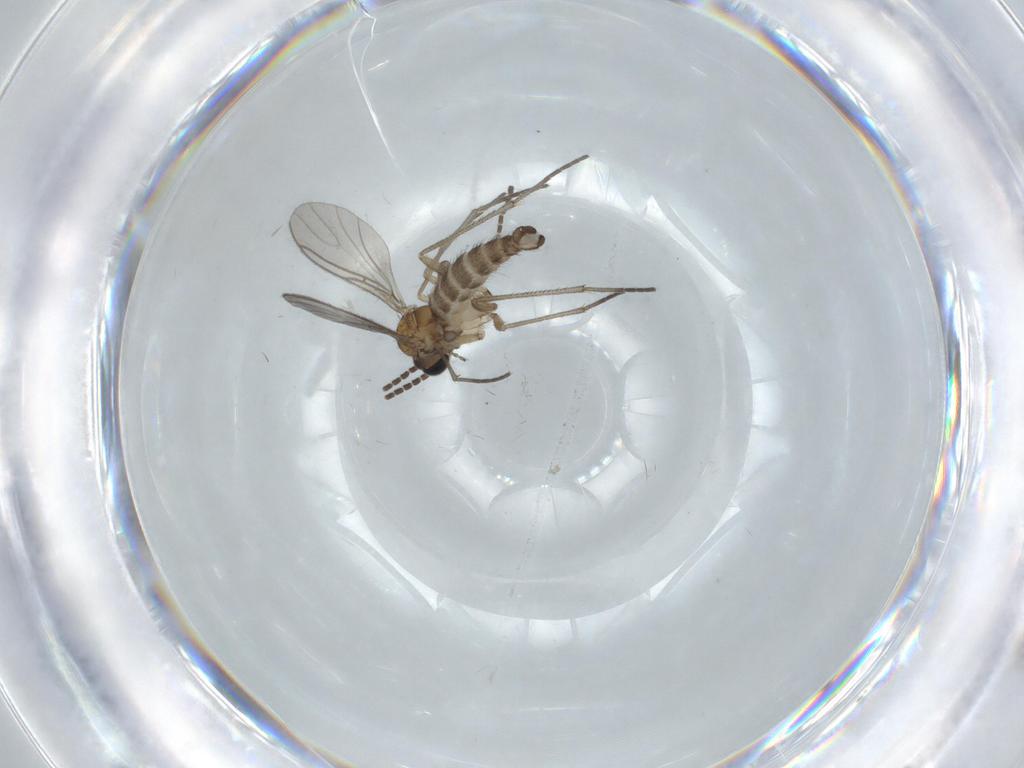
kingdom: Animalia
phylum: Arthropoda
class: Insecta
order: Diptera
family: Sciaridae
